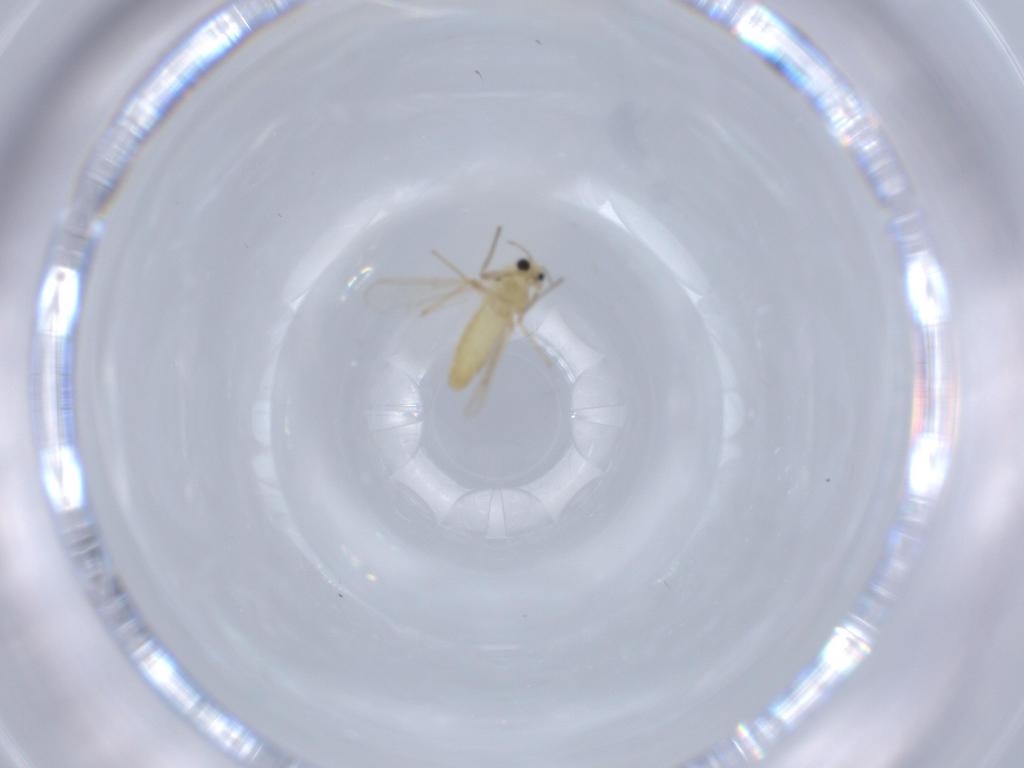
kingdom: Animalia
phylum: Arthropoda
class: Insecta
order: Diptera
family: Chironomidae
